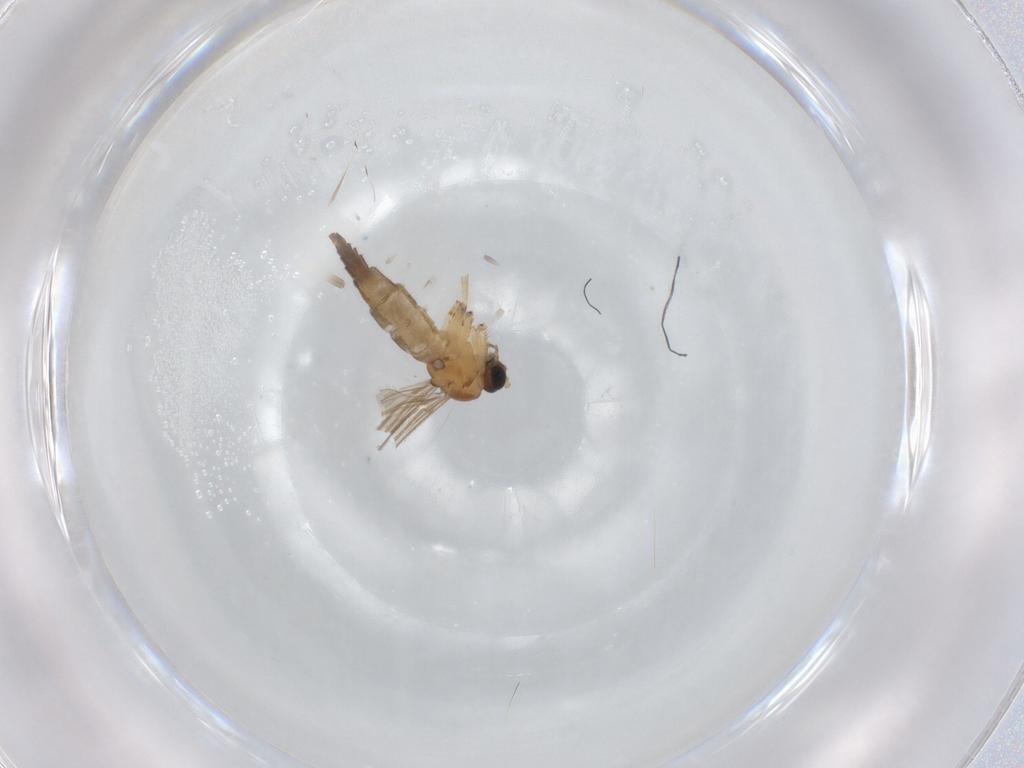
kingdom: Animalia
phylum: Arthropoda
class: Insecta
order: Diptera
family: Sciaridae
